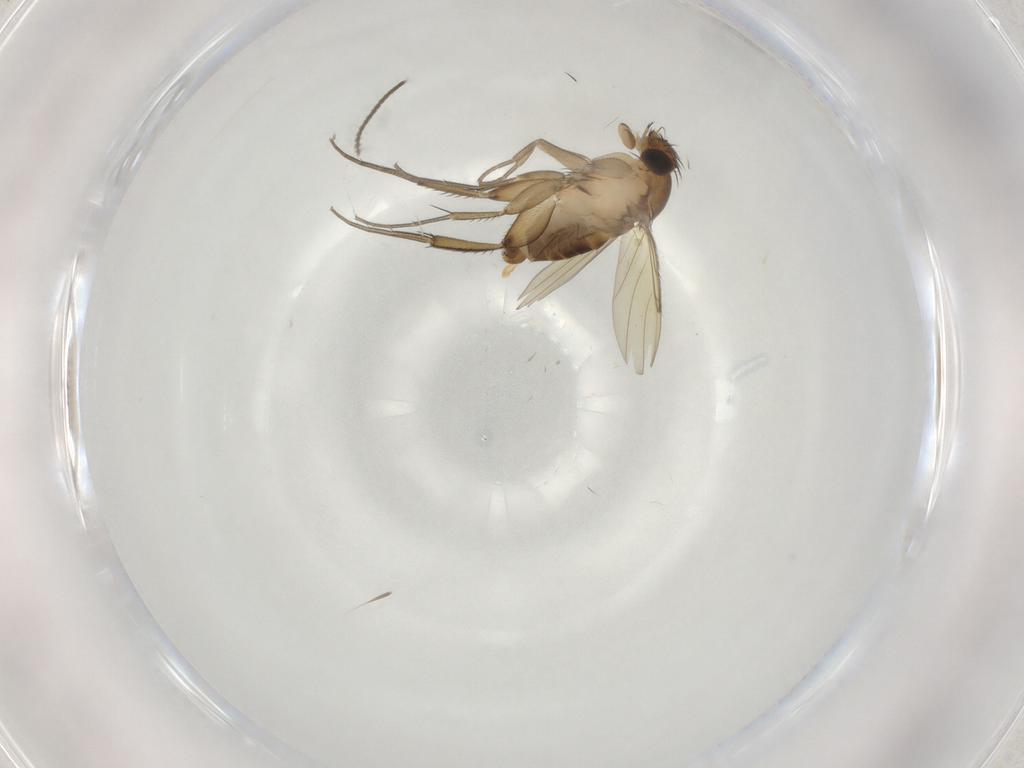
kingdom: Animalia
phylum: Arthropoda
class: Insecta
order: Diptera
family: Phoridae
